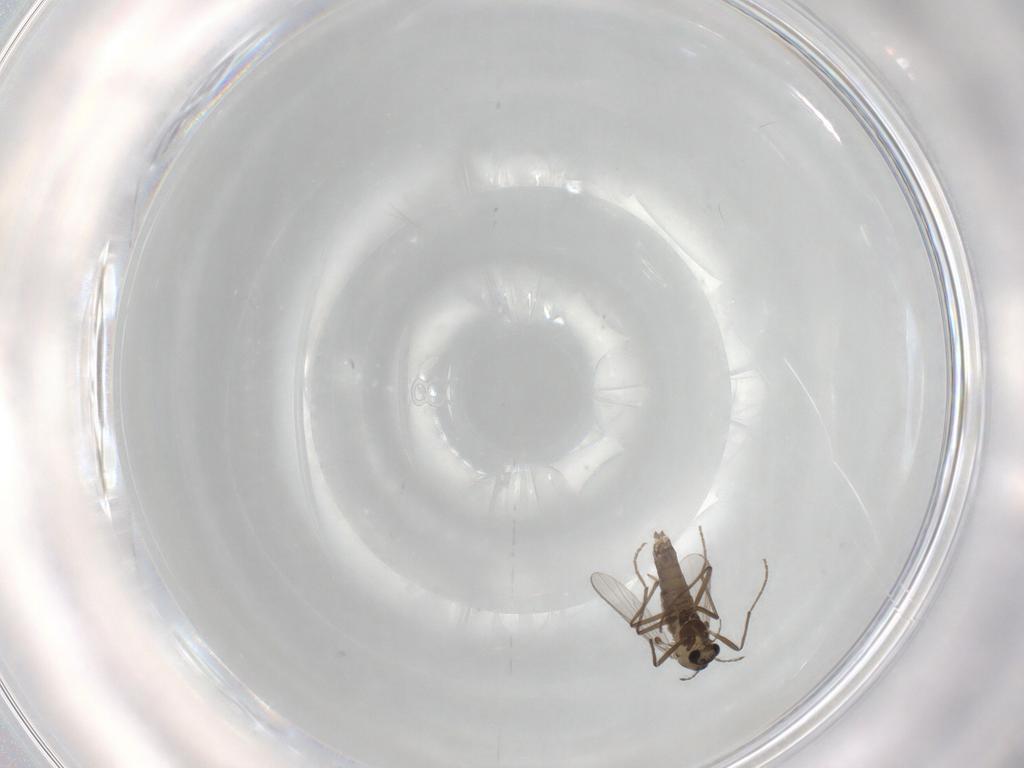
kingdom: Animalia
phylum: Arthropoda
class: Insecta
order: Diptera
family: Chironomidae
